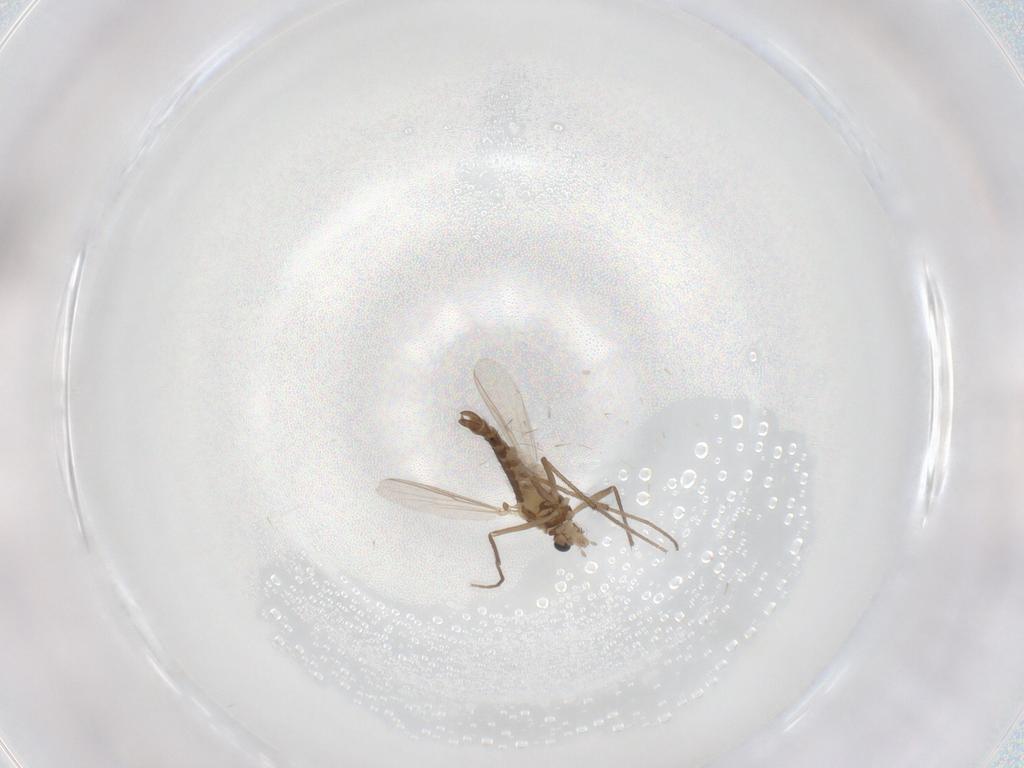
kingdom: Animalia
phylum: Arthropoda
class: Insecta
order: Diptera
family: Chironomidae
